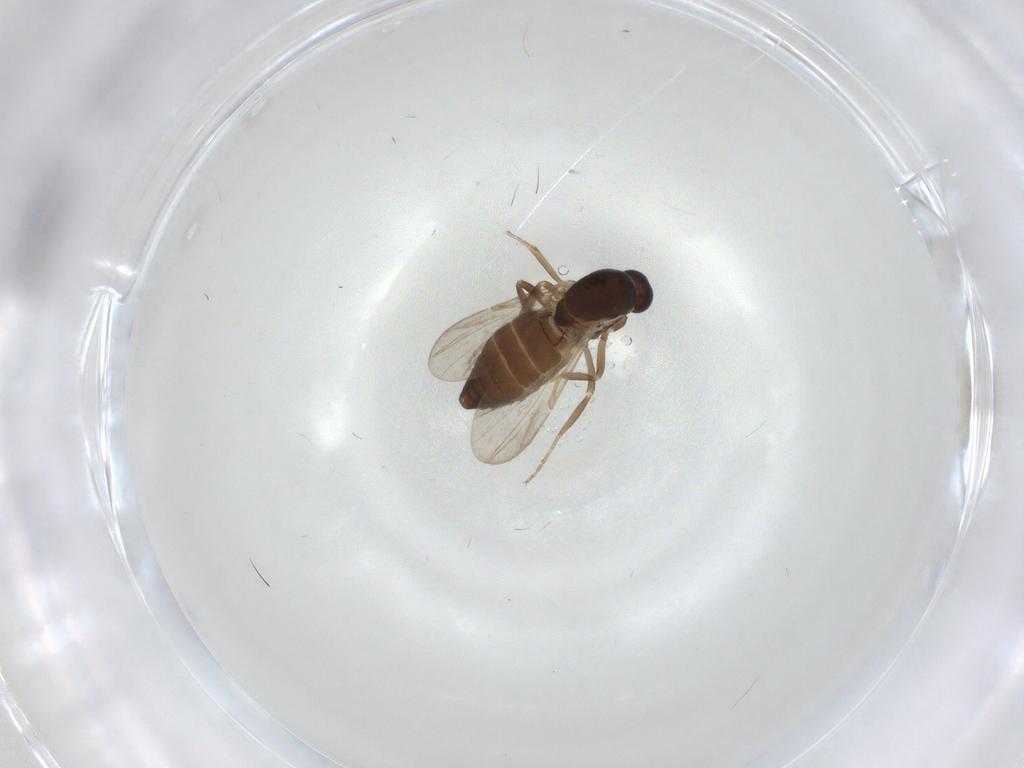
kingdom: Animalia
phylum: Arthropoda
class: Insecta
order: Diptera
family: Ceratopogonidae
